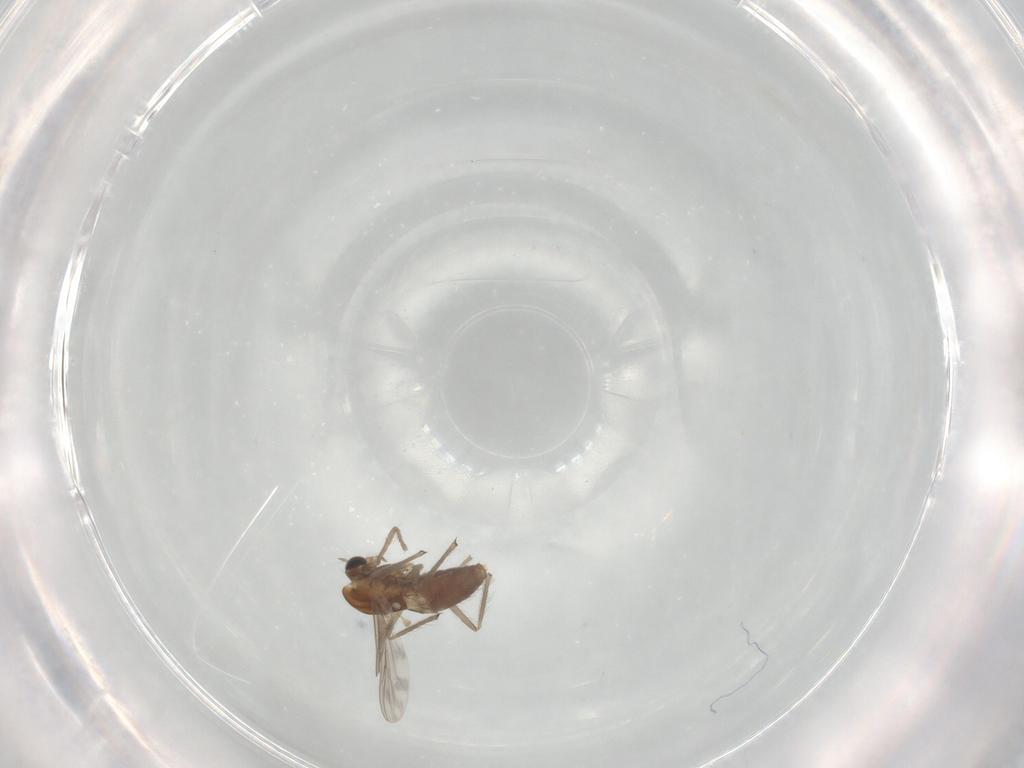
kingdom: Animalia
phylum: Arthropoda
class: Insecta
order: Diptera
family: Chironomidae
